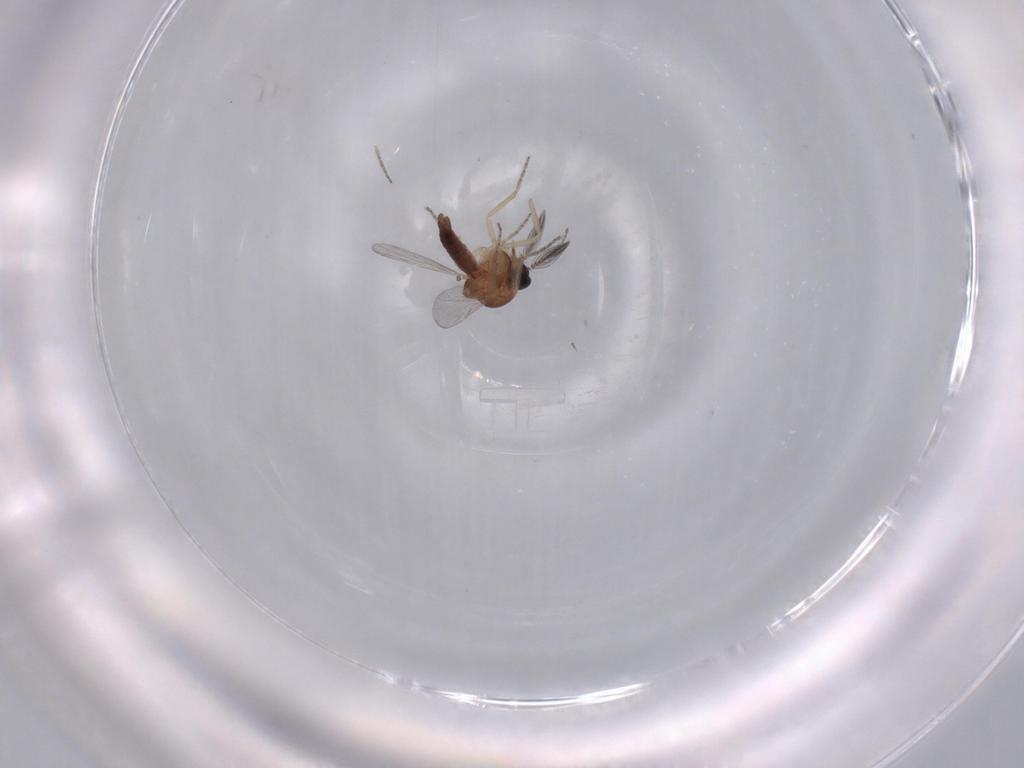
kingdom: Animalia
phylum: Arthropoda
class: Insecta
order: Diptera
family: Ceratopogonidae
